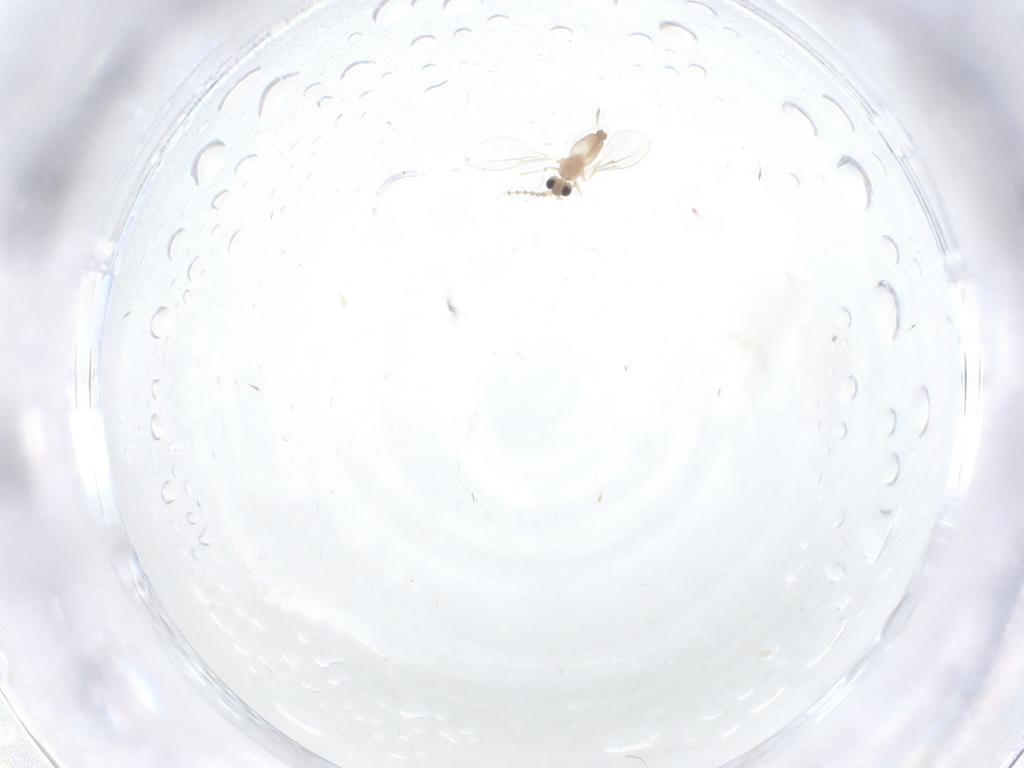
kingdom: Animalia
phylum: Arthropoda
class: Insecta
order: Diptera
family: Cecidomyiidae
